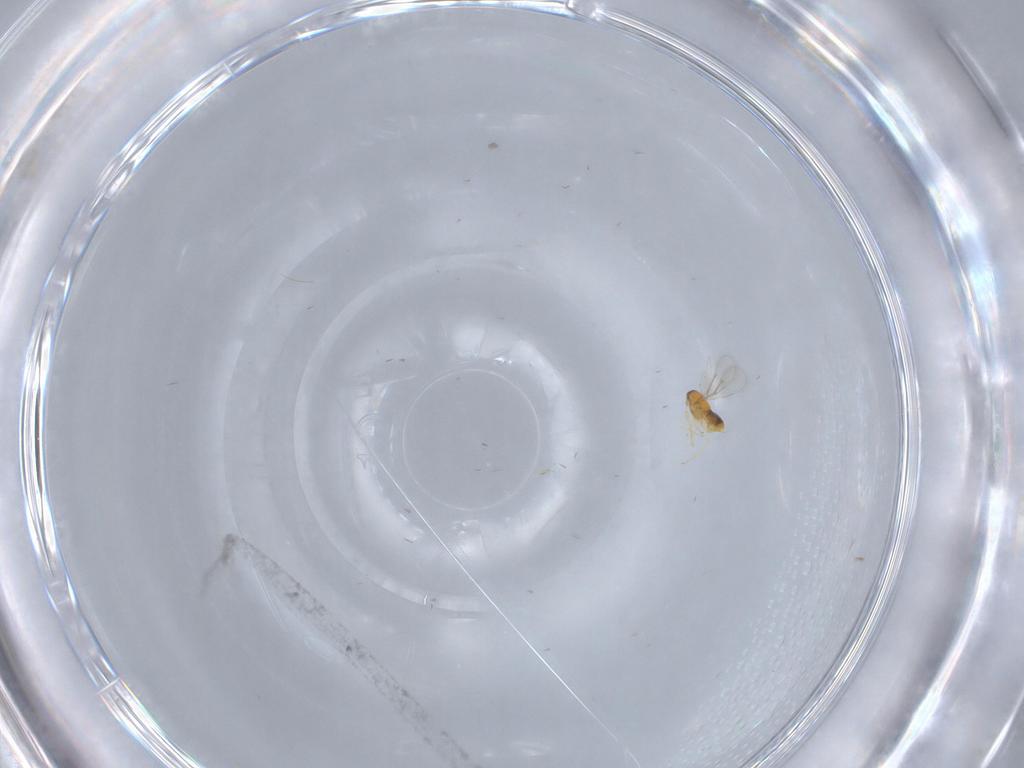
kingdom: Animalia
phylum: Arthropoda
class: Insecta
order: Hymenoptera
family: Aphelinidae
